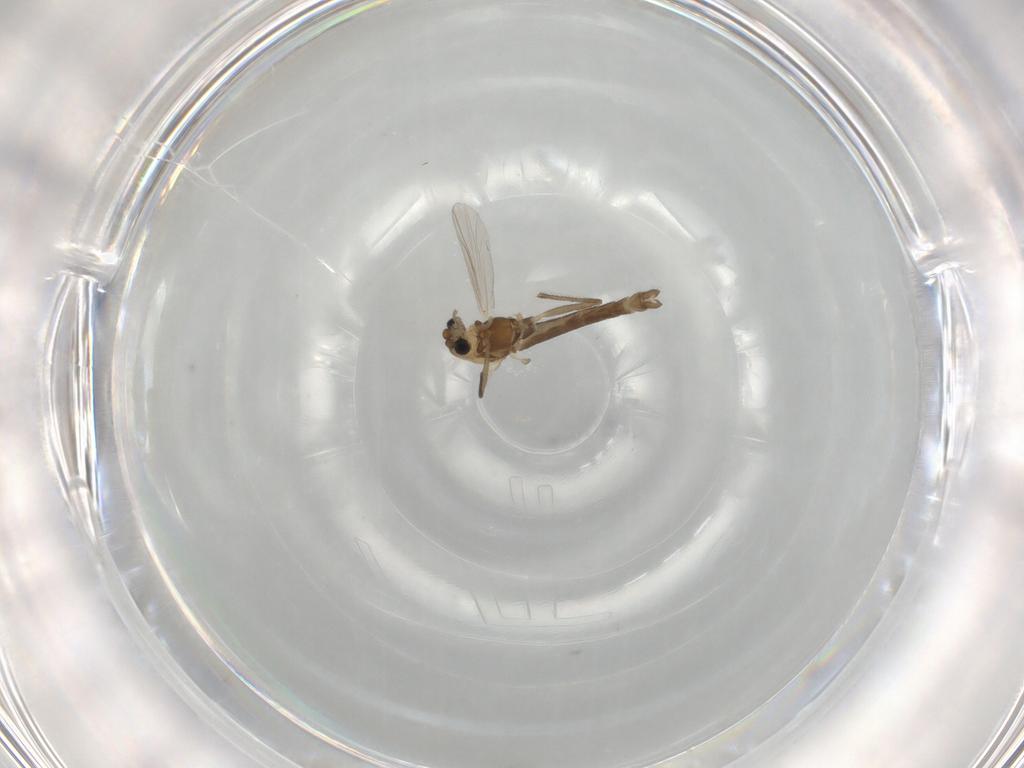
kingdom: Animalia
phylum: Arthropoda
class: Insecta
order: Diptera
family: Chironomidae
